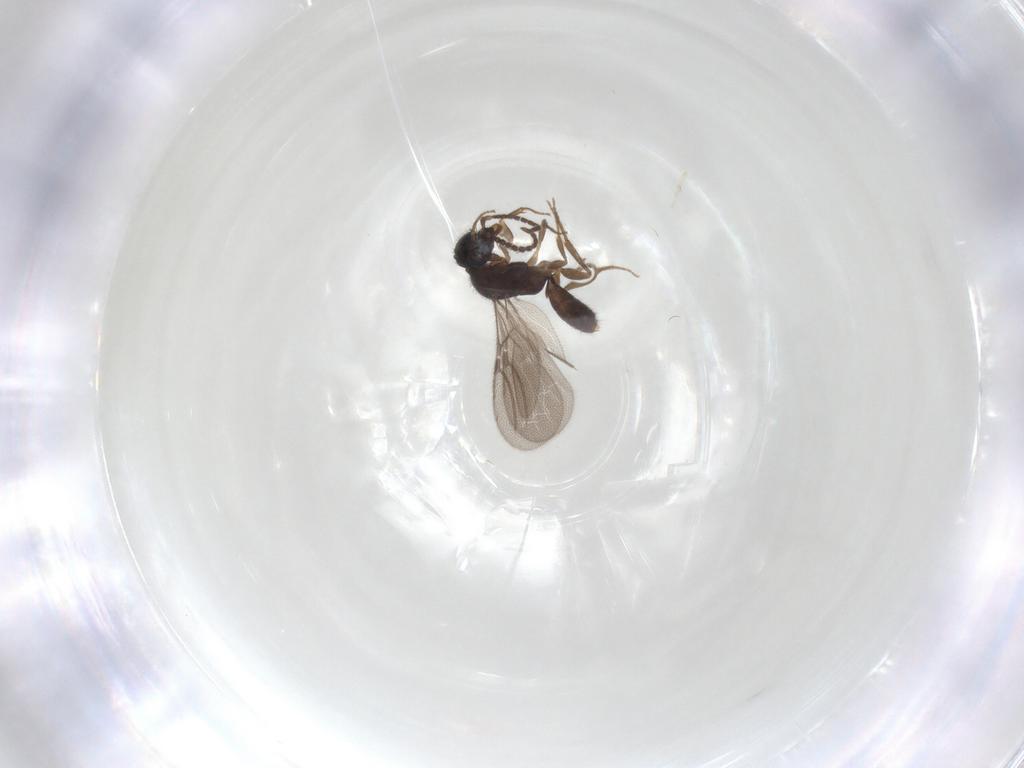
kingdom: Animalia
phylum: Arthropoda
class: Insecta
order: Hymenoptera
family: Bethylidae
